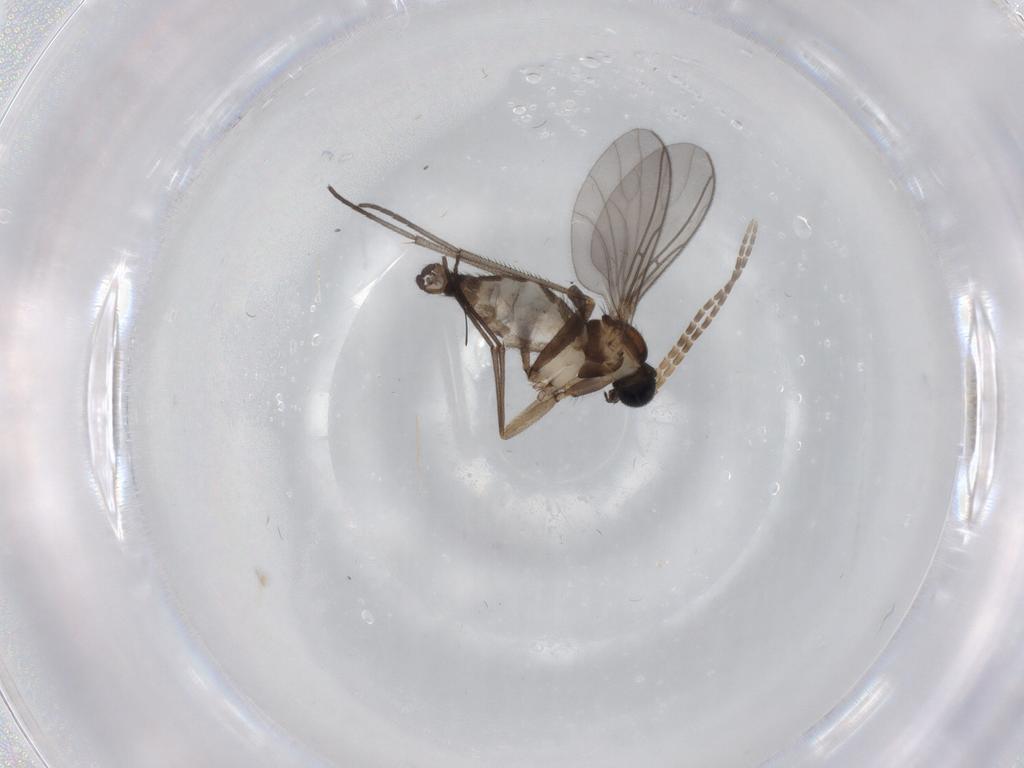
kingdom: Animalia
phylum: Arthropoda
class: Insecta
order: Diptera
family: Sciaridae
